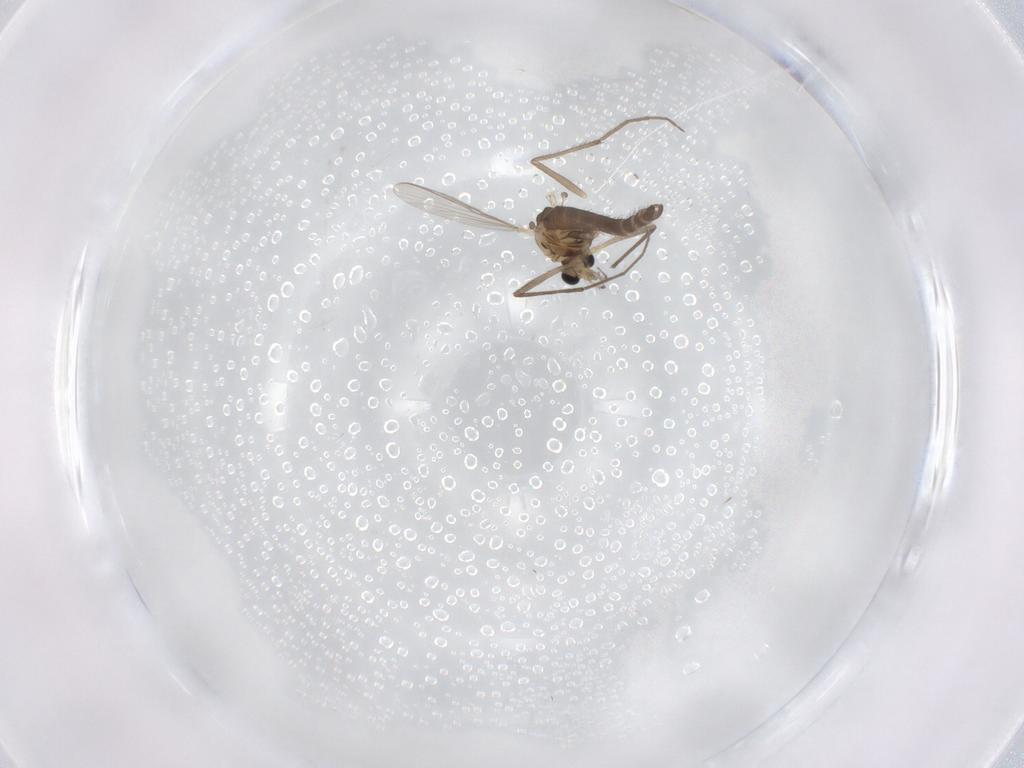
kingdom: Animalia
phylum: Arthropoda
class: Insecta
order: Diptera
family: Chironomidae
